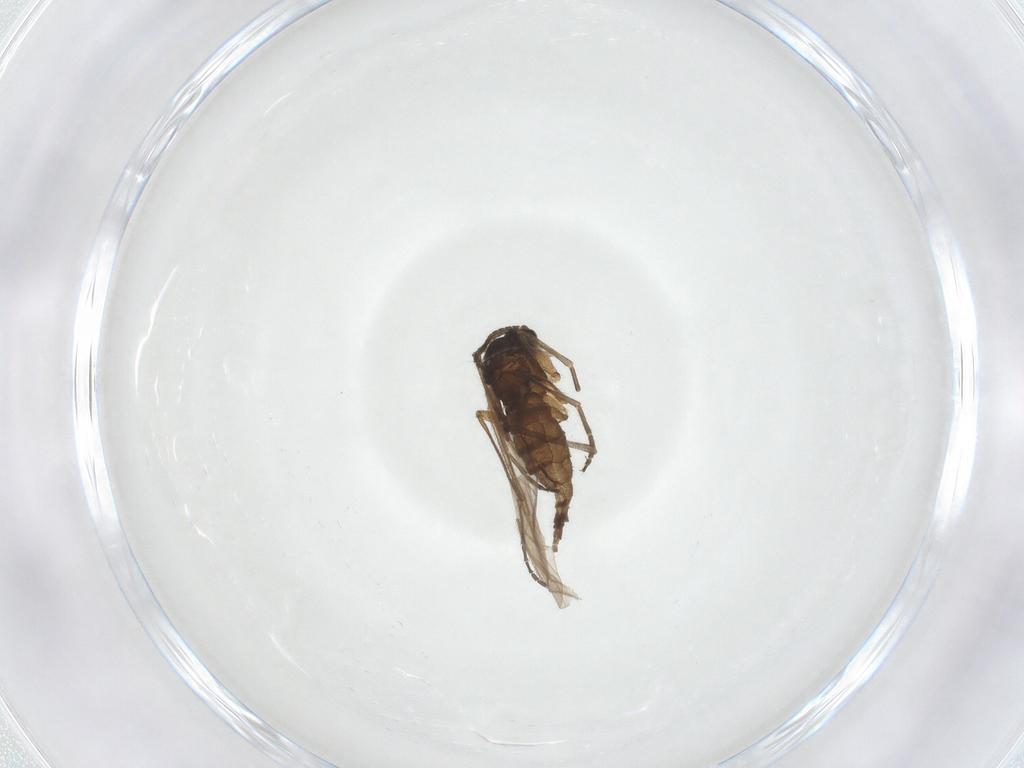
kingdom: Animalia
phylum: Arthropoda
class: Insecta
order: Diptera
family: Sciaridae
